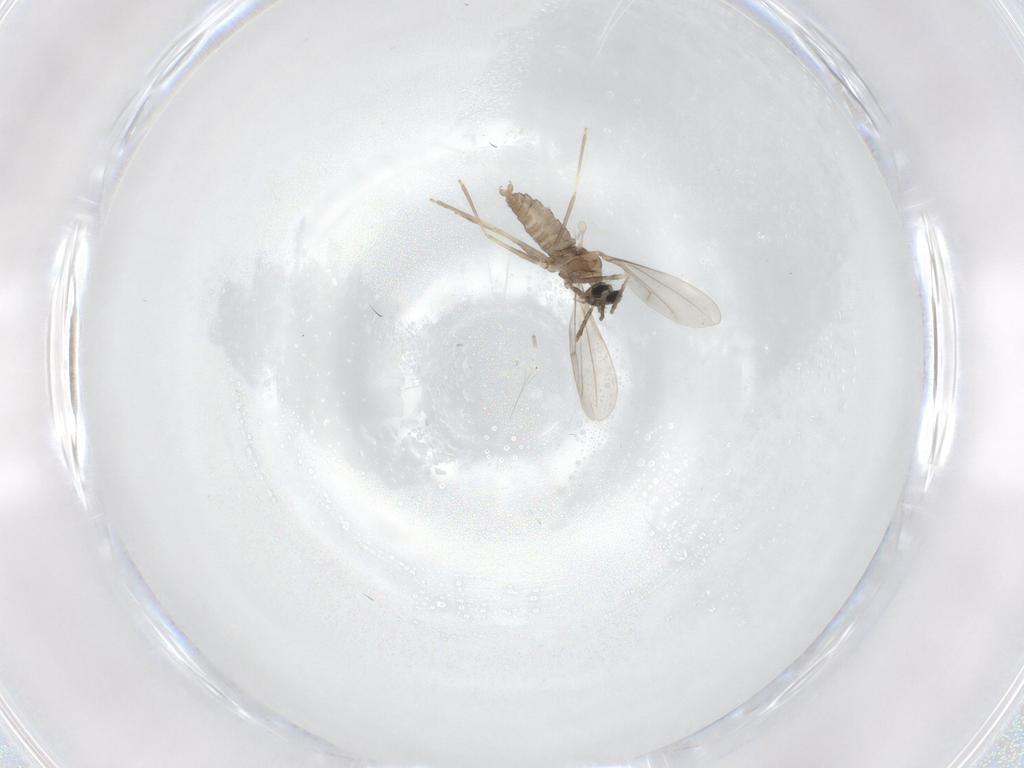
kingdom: Animalia
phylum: Arthropoda
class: Insecta
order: Diptera
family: Cecidomyiidae
